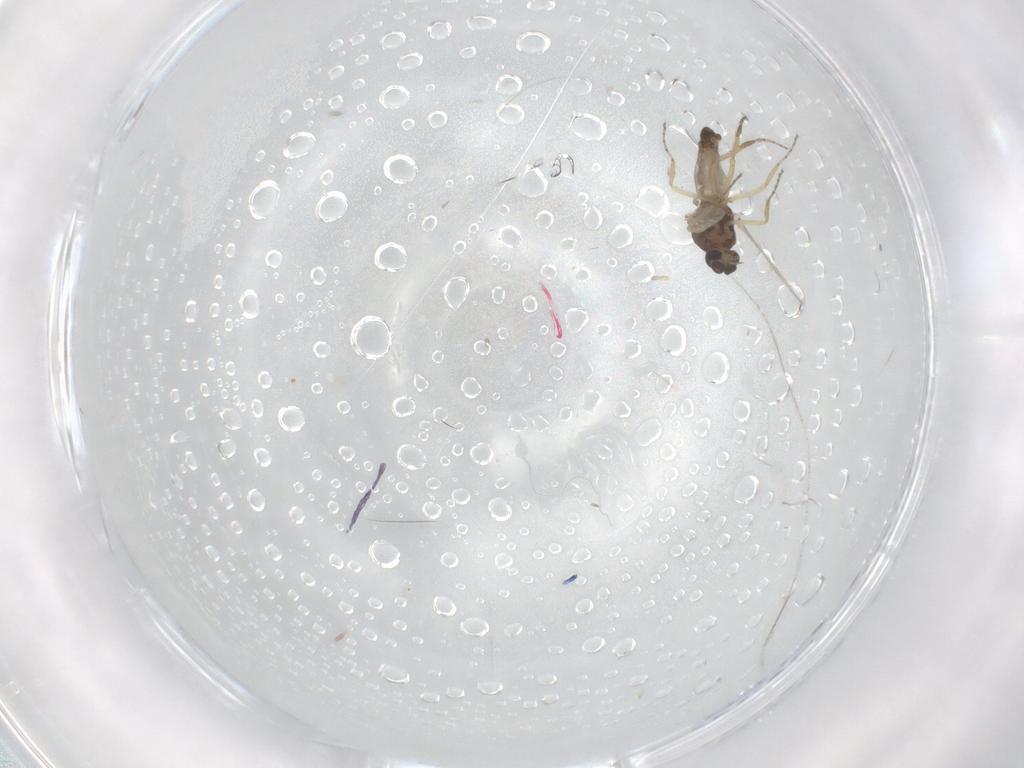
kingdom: Animalia
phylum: Arthropoda
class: Insecta
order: Diptera
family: Ceratopogonidae
